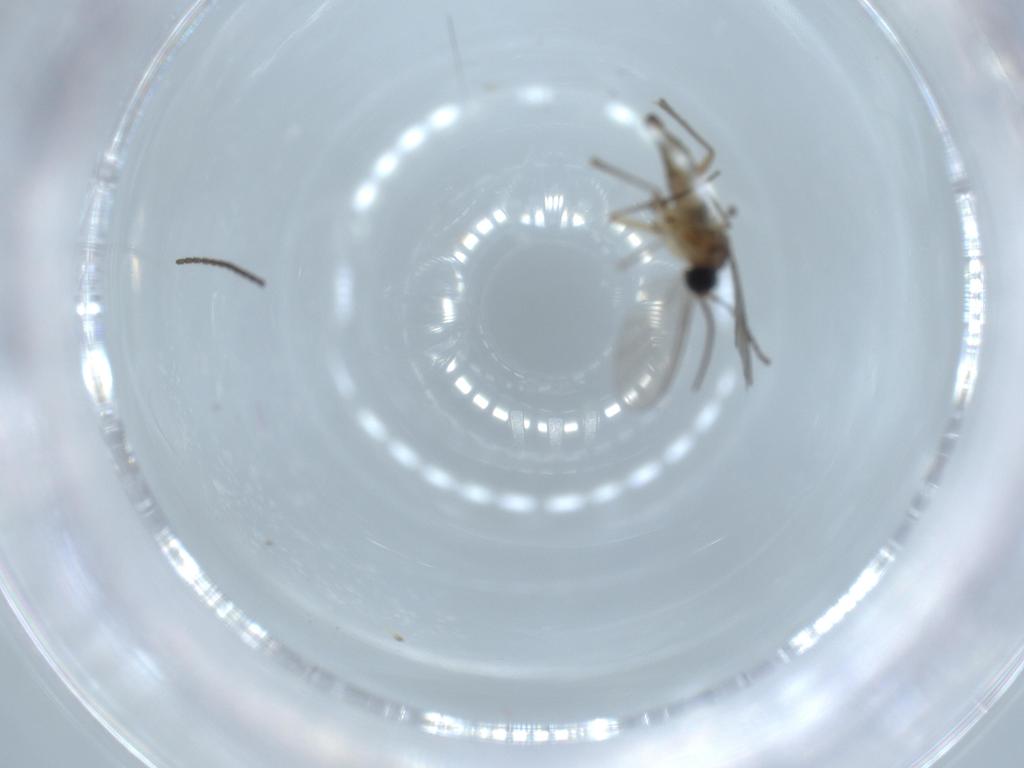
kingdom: Animalia
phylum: Arthropoda
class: Insecta
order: Diptera
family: Sciaridae
